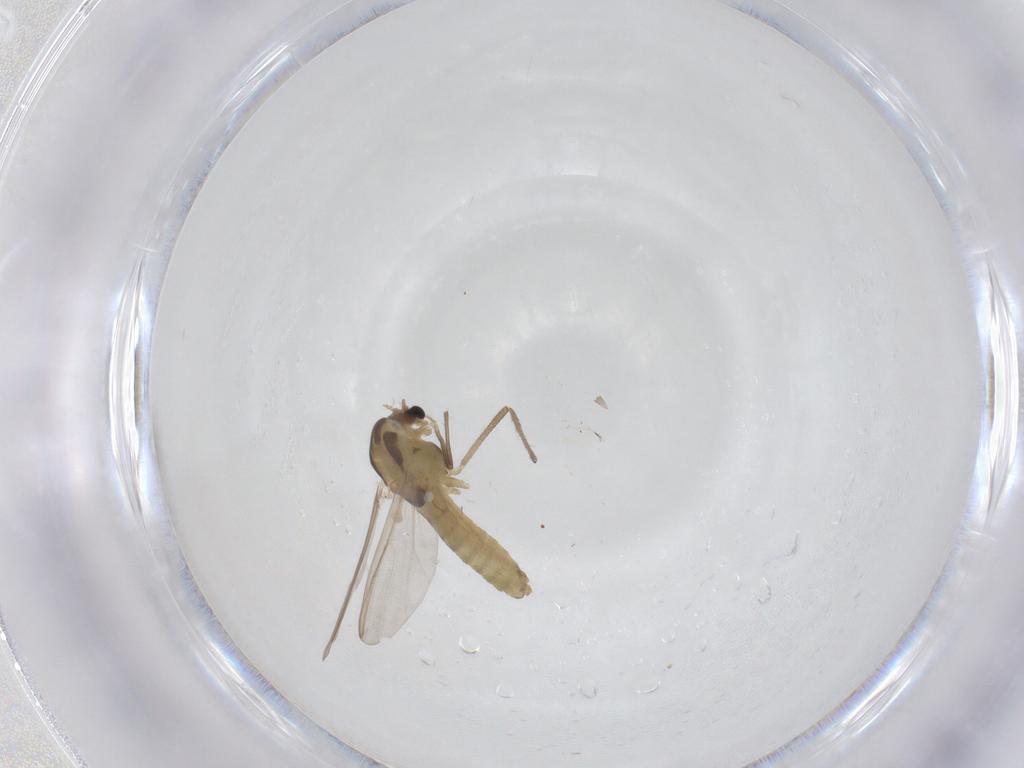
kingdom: Animalia
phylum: Arthropoda
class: Insecta
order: Diptera
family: Chironomidae
